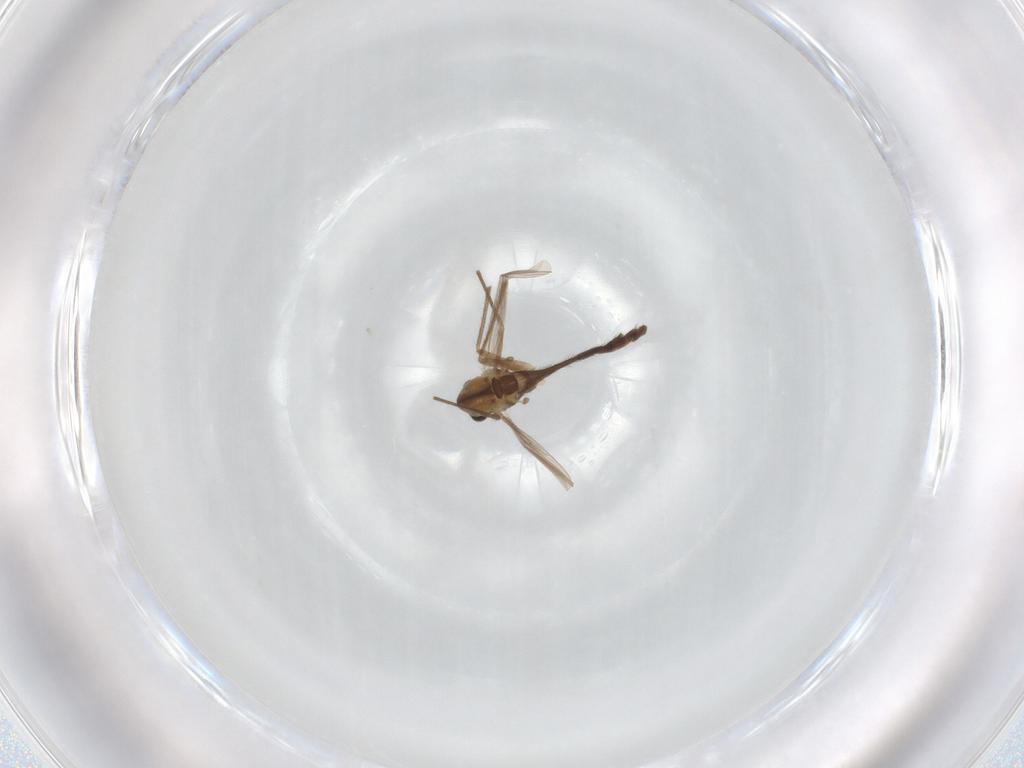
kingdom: Animalia
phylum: Arthropoda
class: Insecta
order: Diptera
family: Chironomidae
